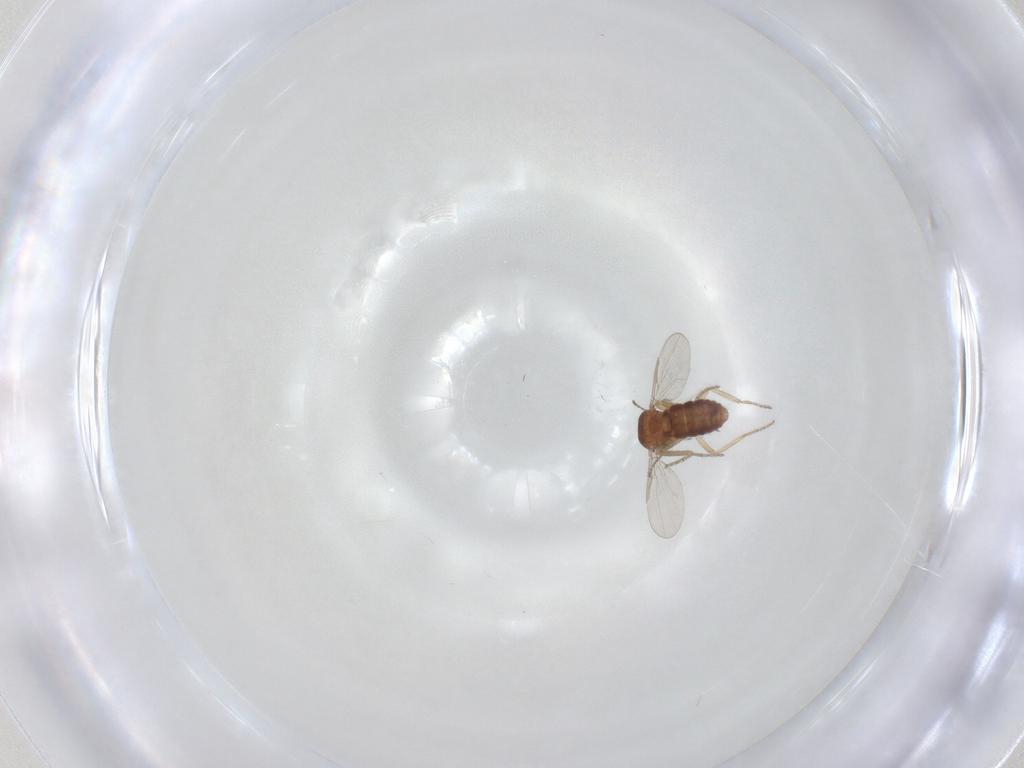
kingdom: Animalia
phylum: Arthropoda
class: Insecta
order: Diptera
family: Ceratopogonidae
